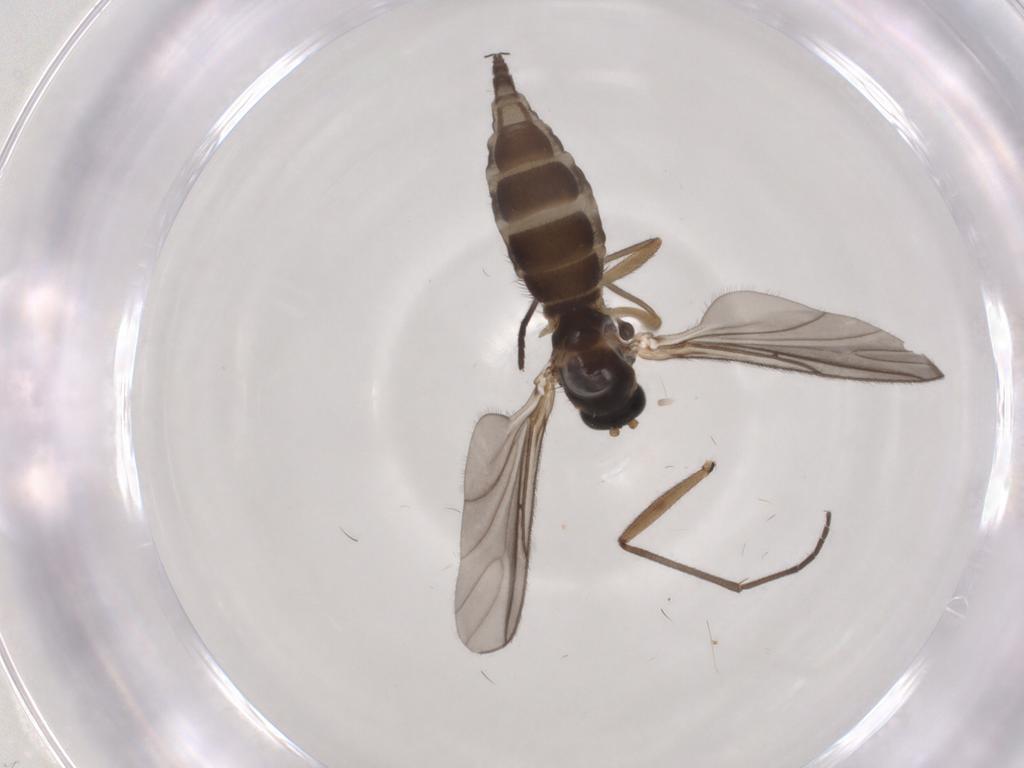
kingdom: Animalia
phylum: Arthropoda
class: Insecta
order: Diptera
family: Sciaridae
